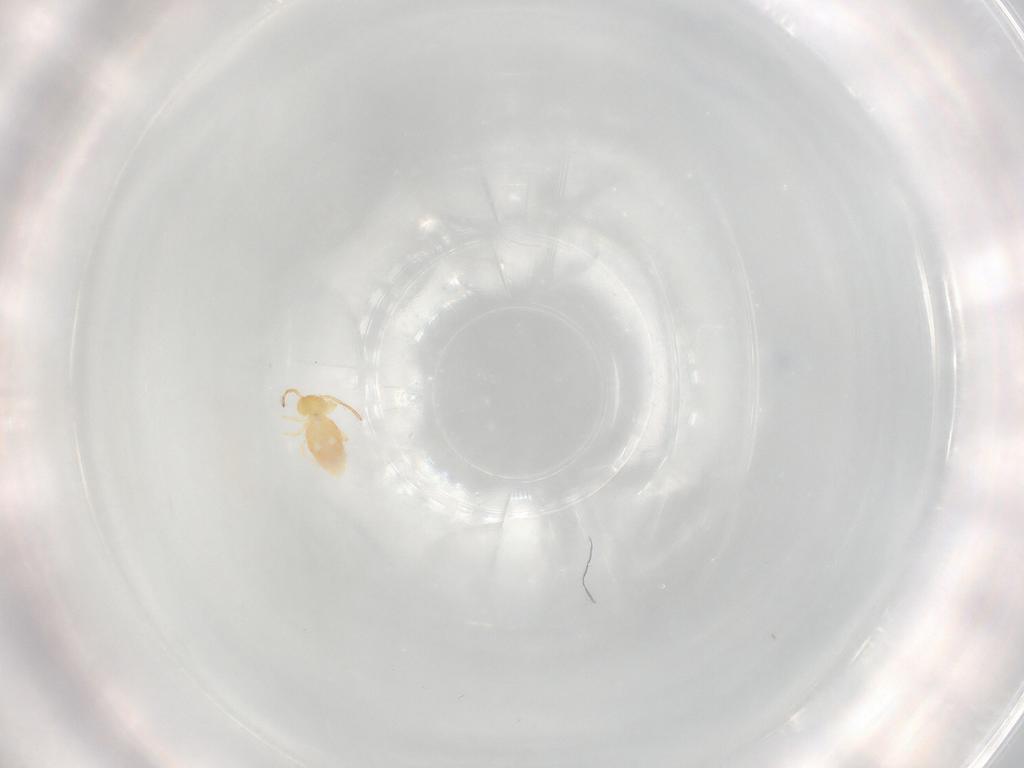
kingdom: Animalia
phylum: Arthropoda
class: Collembola
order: Symphypleona
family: Bourletiellidae
